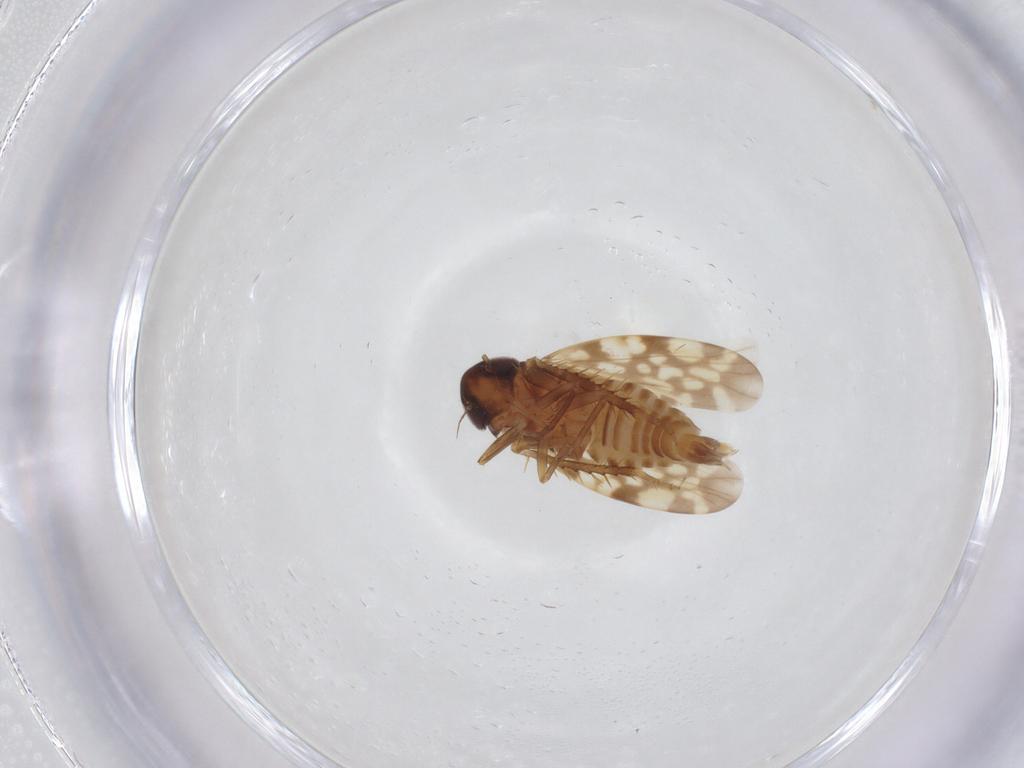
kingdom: Animalia
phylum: Arthropoda
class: Insecta
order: Hemiptera
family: Cicadellidae
